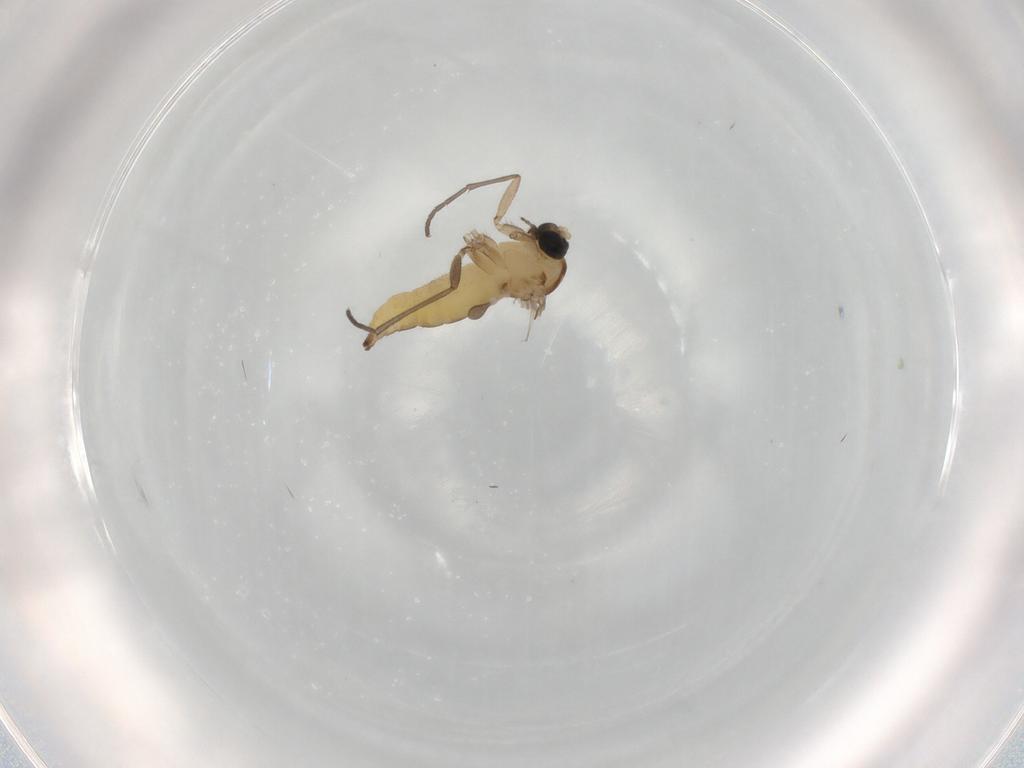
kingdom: Animalia
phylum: Arthropoda
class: Insecta
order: Diptera
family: Sciaridae
